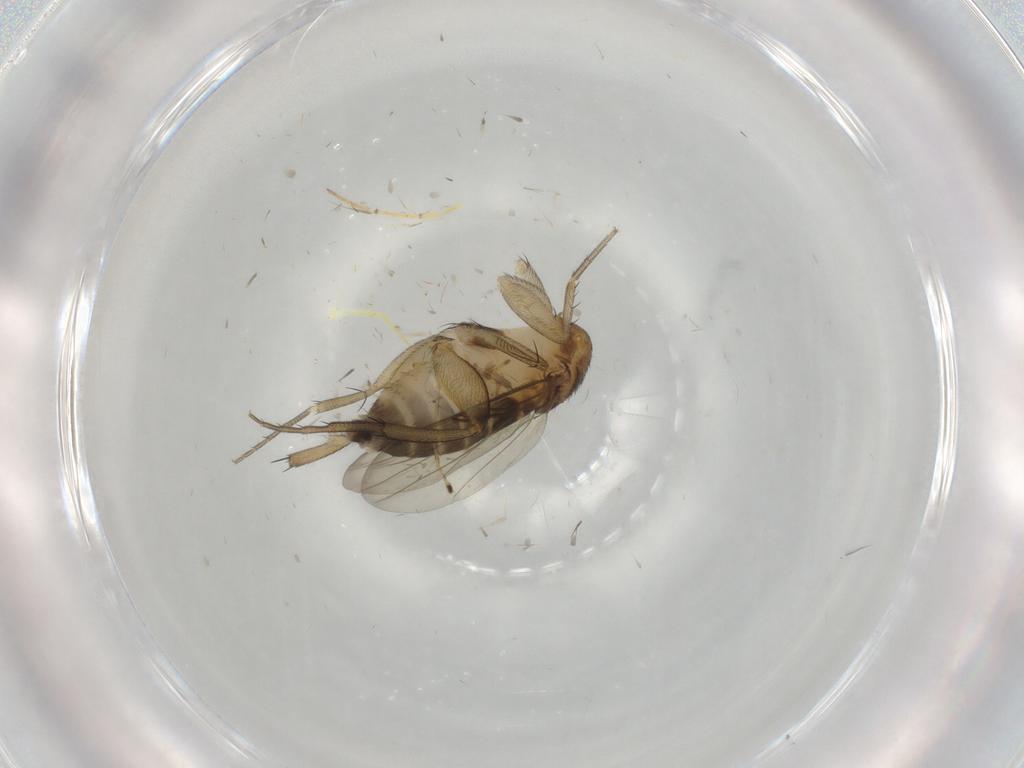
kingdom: Animalia
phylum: Arthropoda
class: Insecta
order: Diptera
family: Phoridae
